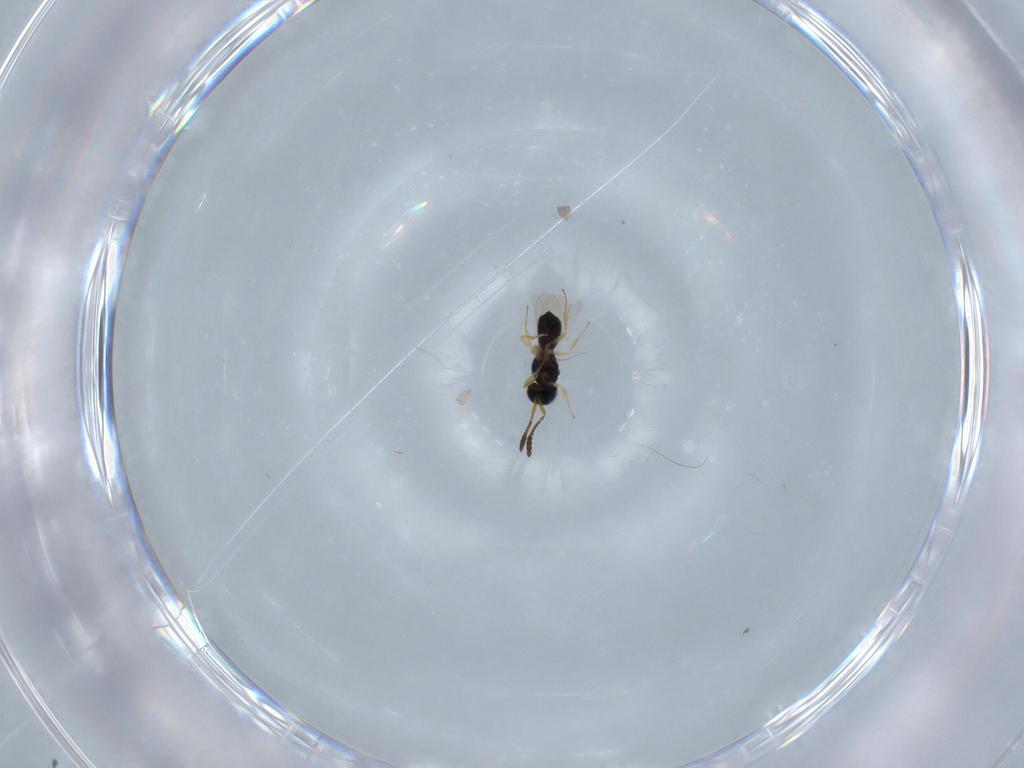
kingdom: Animalia
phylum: Arthropoda
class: Insecta
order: Hymenoptera
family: Scelionidae
